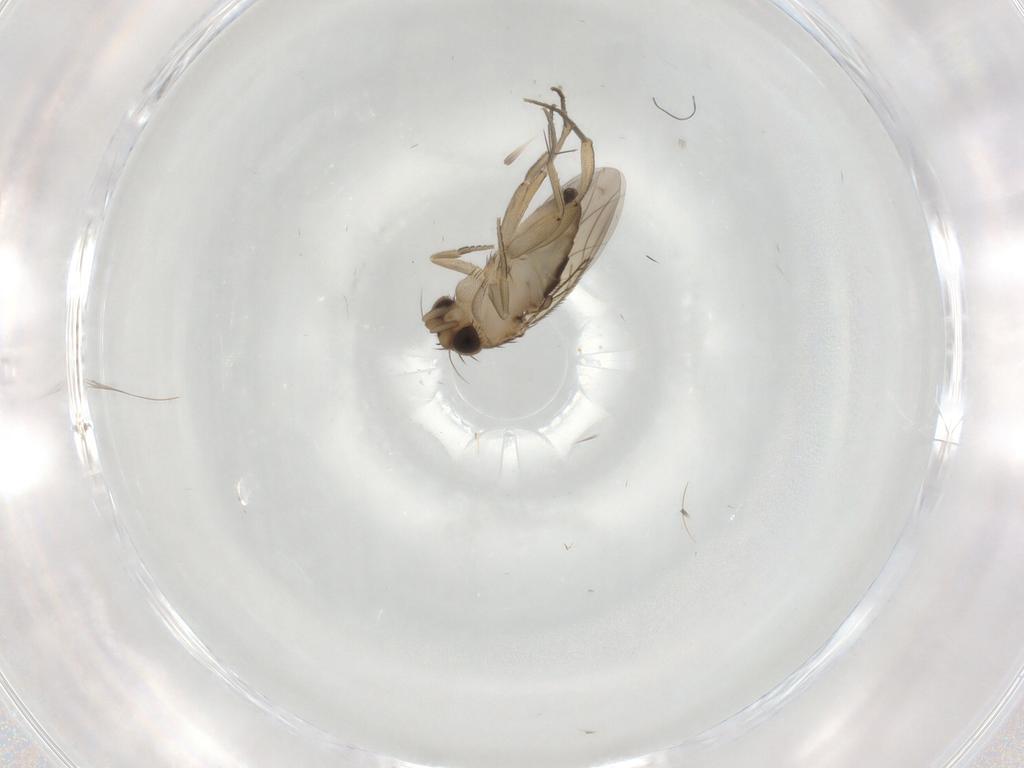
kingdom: Animalia
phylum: Arthropoda
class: Insecta
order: Diptera
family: Phoridae
